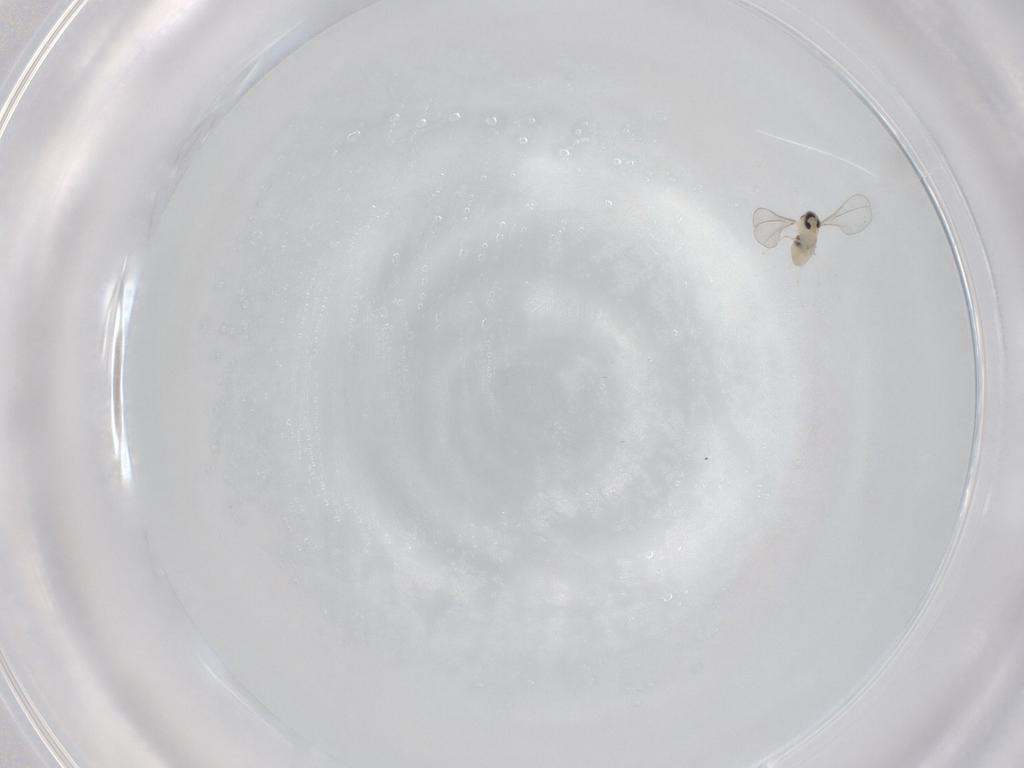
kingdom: Animalia
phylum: Arthropoda
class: Insecta
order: Diptera
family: Cecidomyiidae
